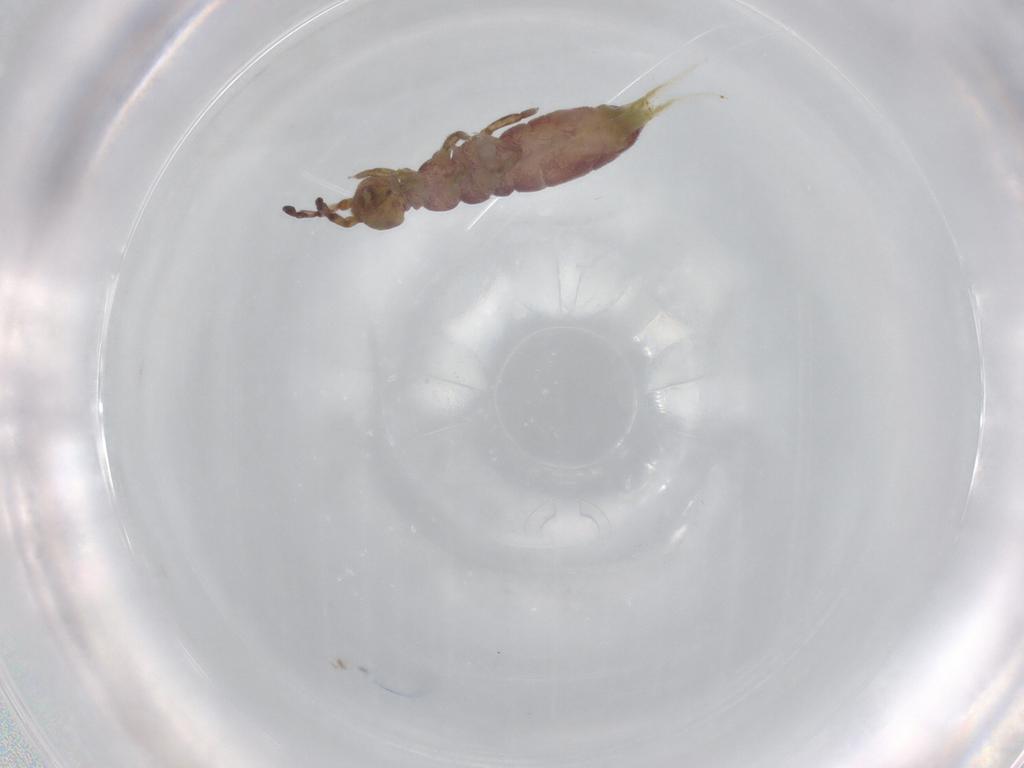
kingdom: Animalia
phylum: Arthropoda
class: Collembola
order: Entomobryomorpha
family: Isotomidae
